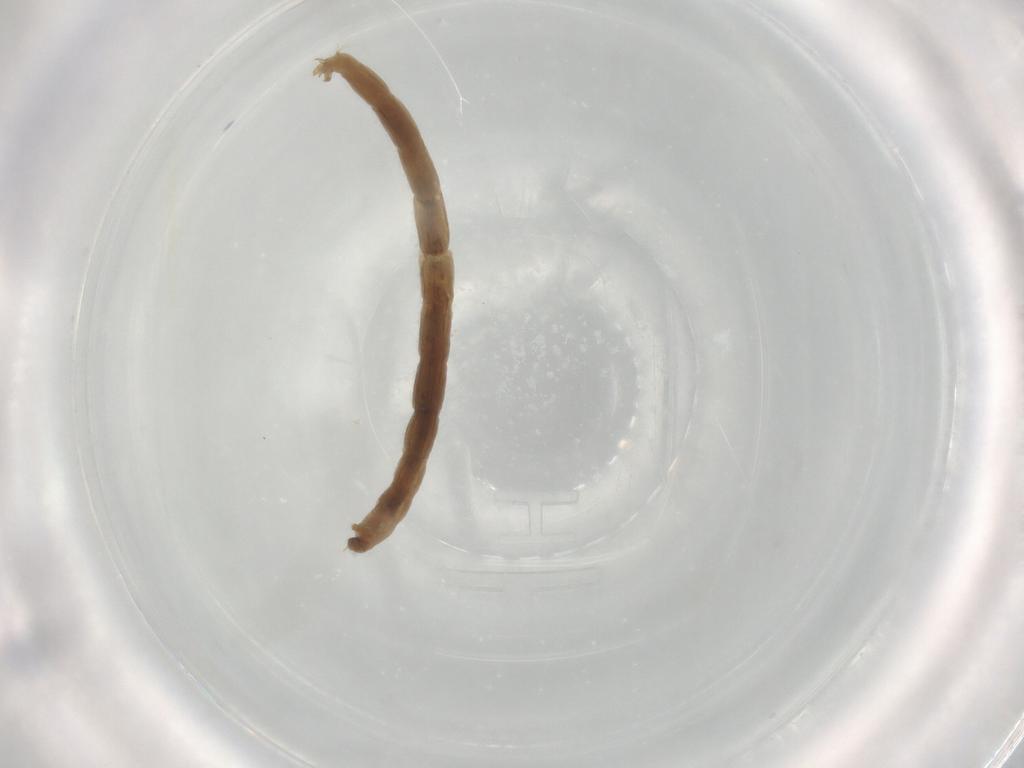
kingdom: Animalia
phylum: Arthropoda
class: Insecta
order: Diptera
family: Chironomidae
